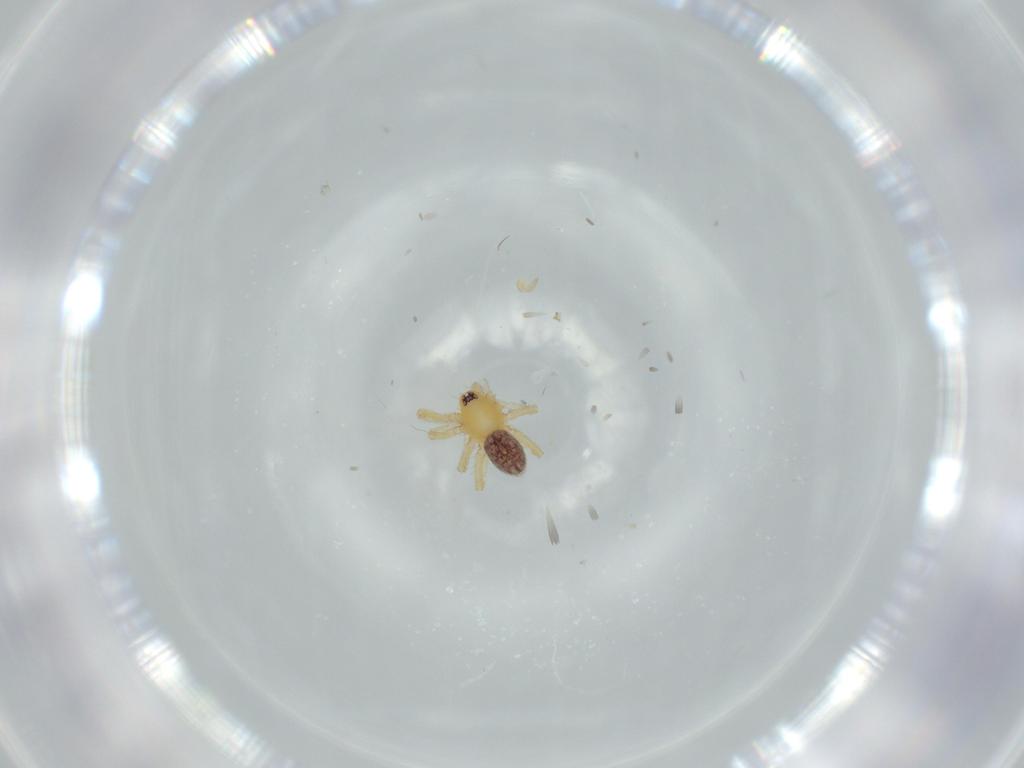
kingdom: Animalia
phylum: Arthropoda
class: Arachnida
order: Araneae
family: Oonopidae
